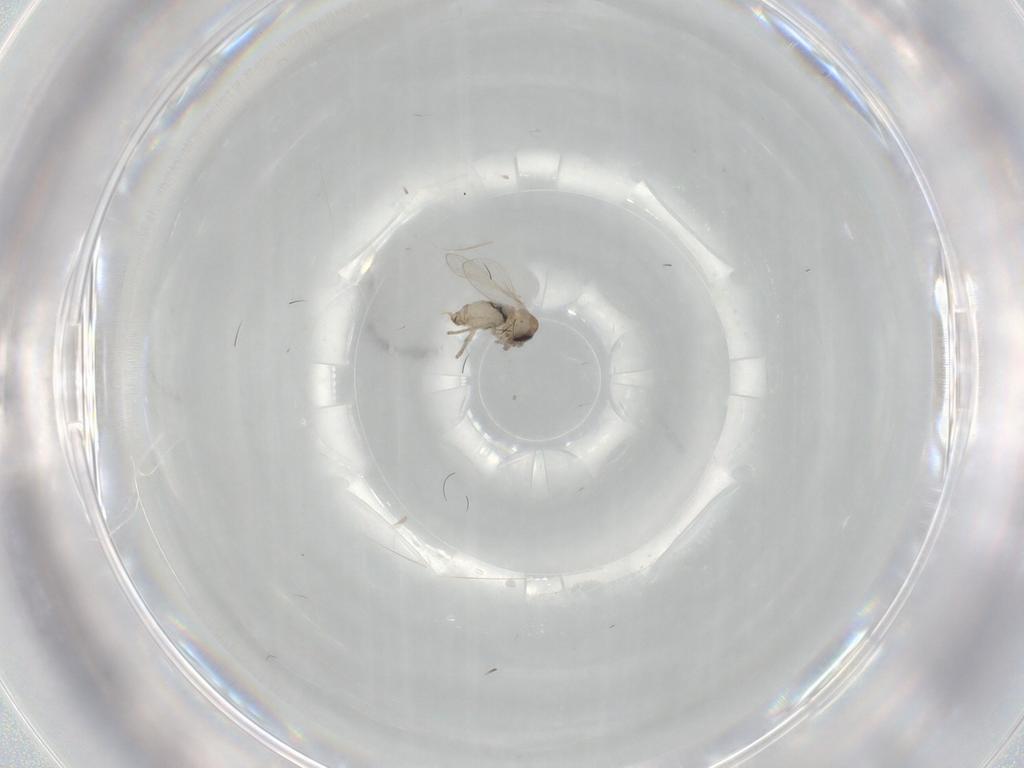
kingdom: Animalia
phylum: Arthropoda
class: Insecta
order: Diptera
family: Psychodidae
